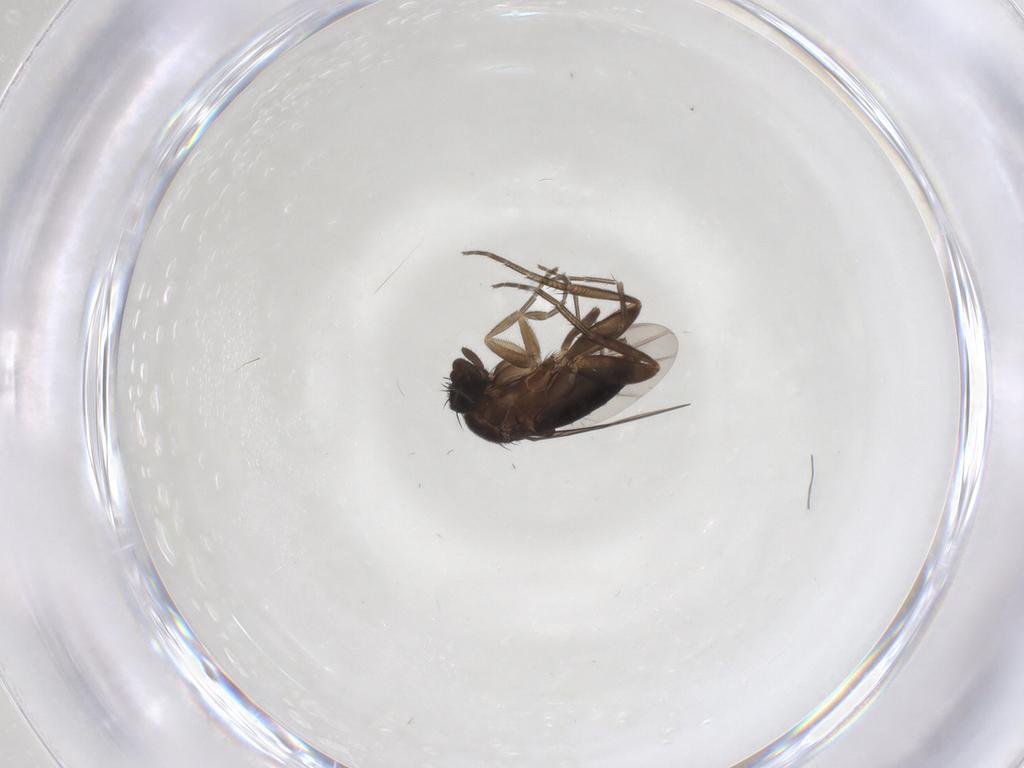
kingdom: Animalia
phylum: Arthropoda
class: Insecta
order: Diptera
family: Phoridae
